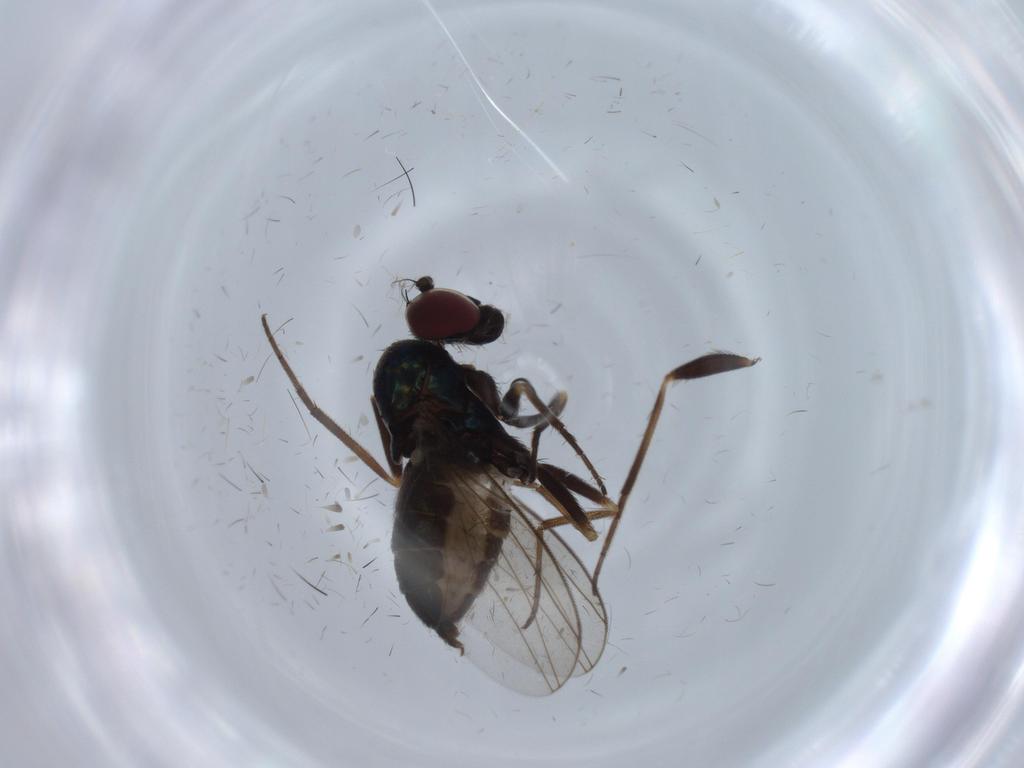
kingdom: Animalia
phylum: Arthropoda
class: Insecta
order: Diptera
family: Dolichopodidae
